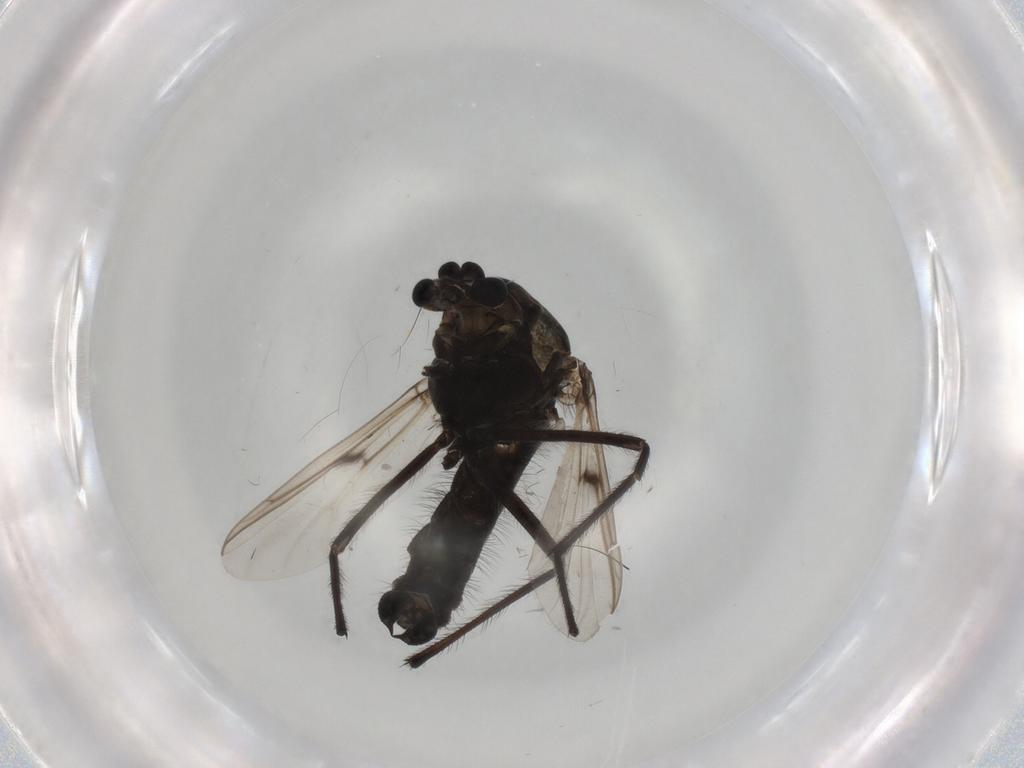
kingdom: Animalia
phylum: Arthropoda
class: Insecta
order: Diptera
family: Chironomidae
